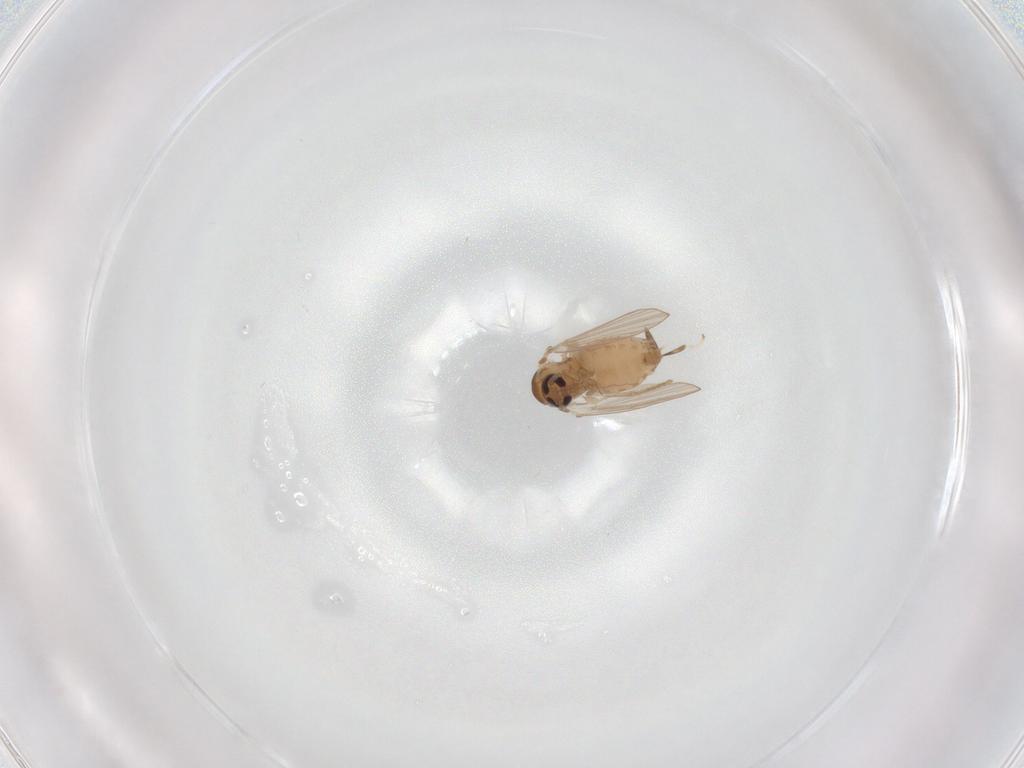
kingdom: Animalia
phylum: Arthropoda
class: Insecta
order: Diptera
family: Psychodidae
